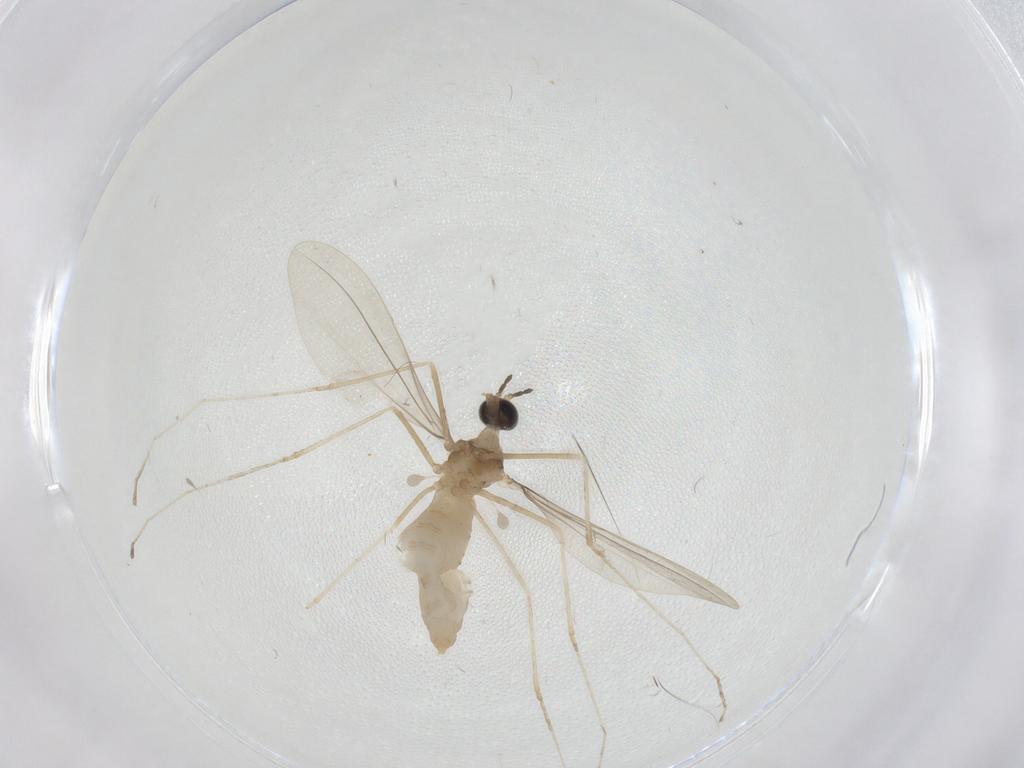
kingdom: Animalia
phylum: Arthropoda
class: Insecta
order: Diptera
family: Cecidomyiidae
